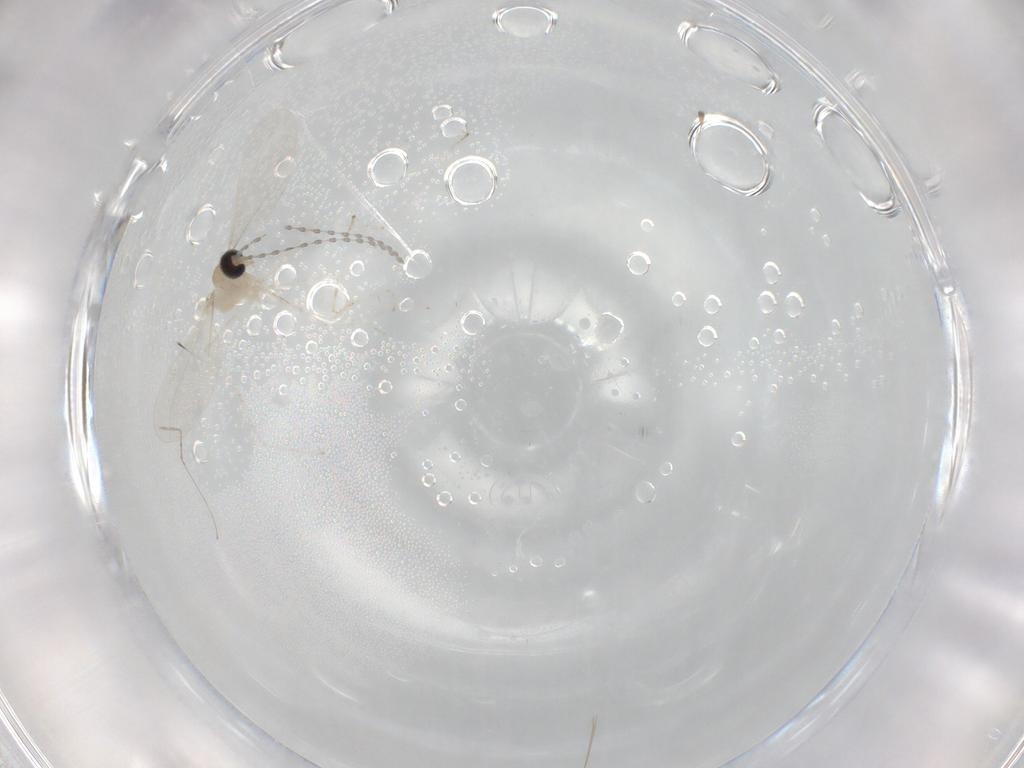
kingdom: Animalia
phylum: Arthropoda
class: Insecta
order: Diptera
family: Cecidomyiidae
